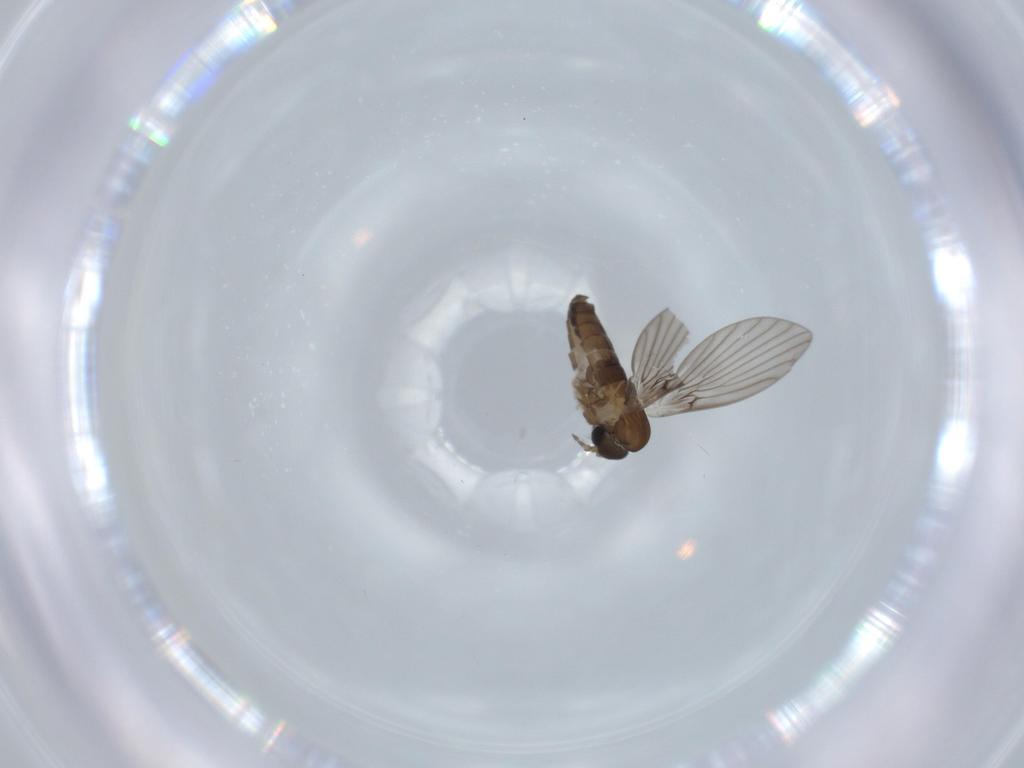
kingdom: Animalia
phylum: Arthropoda
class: Insecta
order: Diptera
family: Psychodidae
